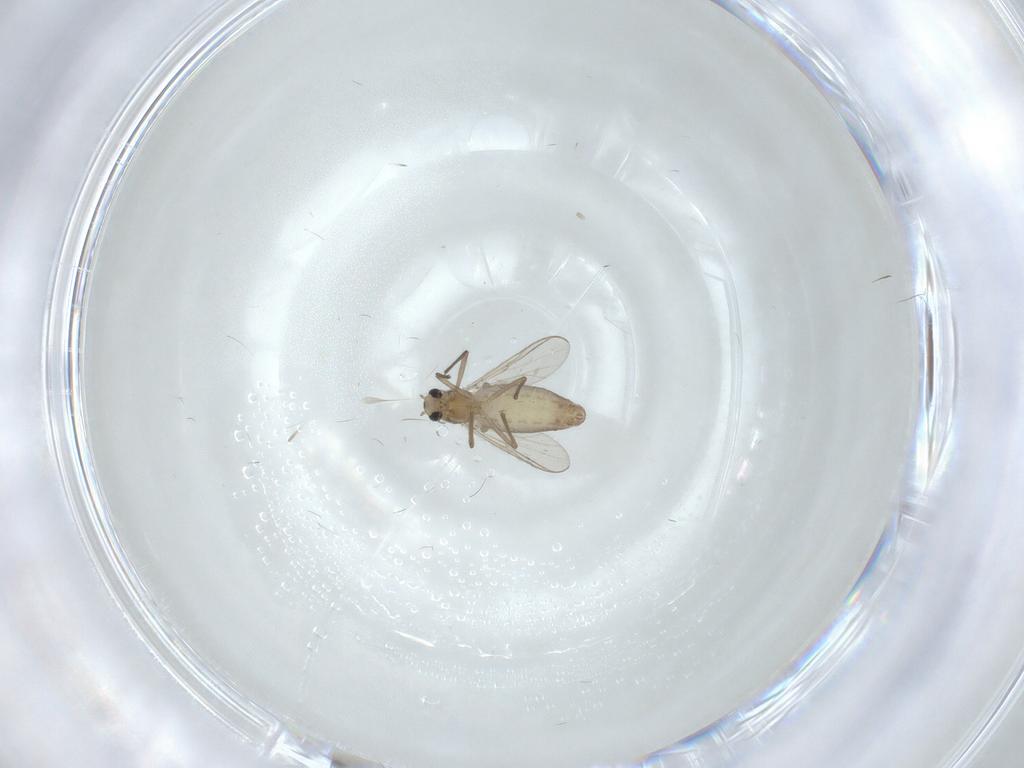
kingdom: Animalia
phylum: Arthropoda
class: Insecta
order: Diptera
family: Chironomidae
